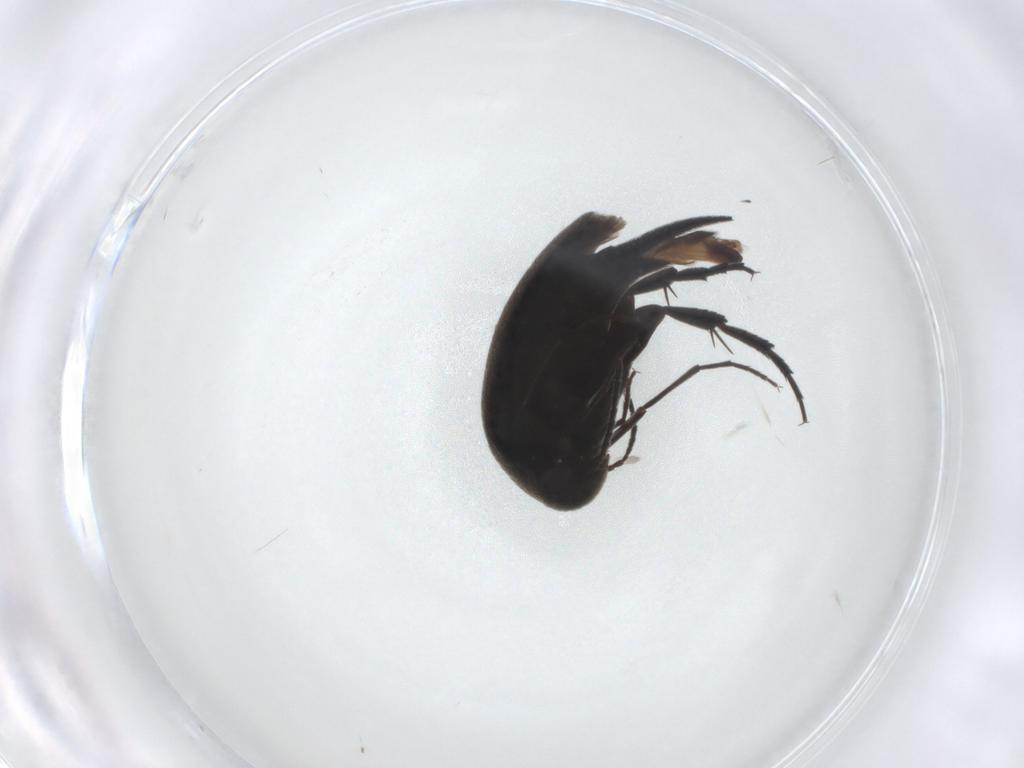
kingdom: Animalia
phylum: Arthropoda
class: Insecta
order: Coleoptera
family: Mordellidae
